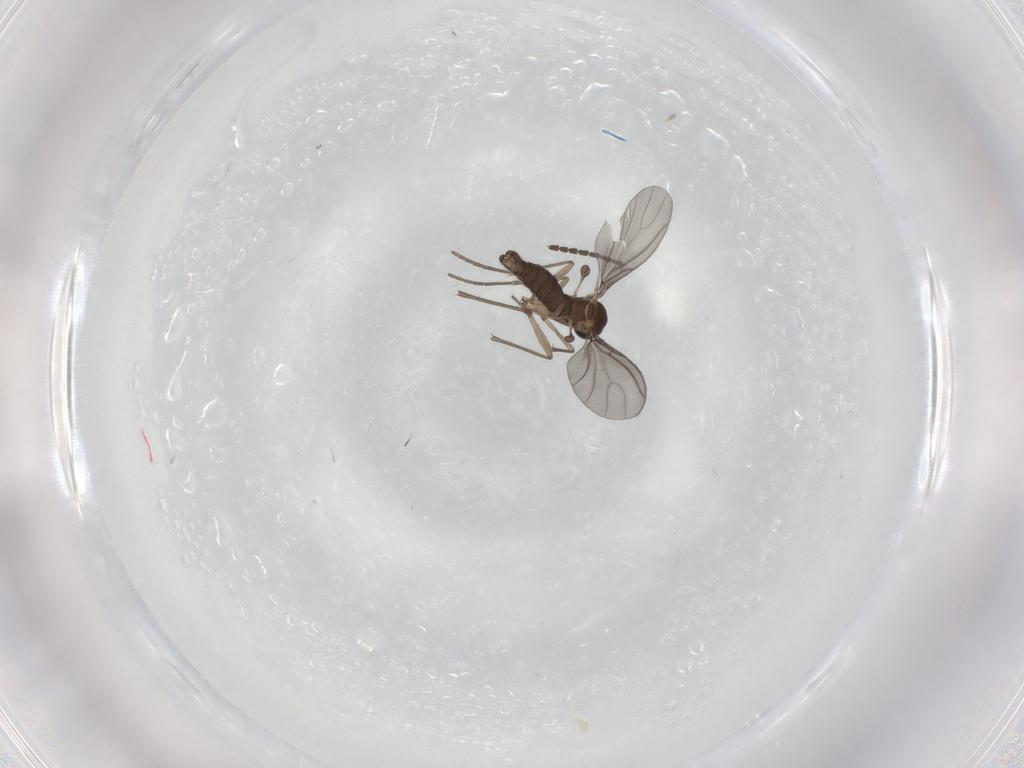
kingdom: Animalia
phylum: Arthropoda
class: Insecta
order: Diptera
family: Sciaridae
